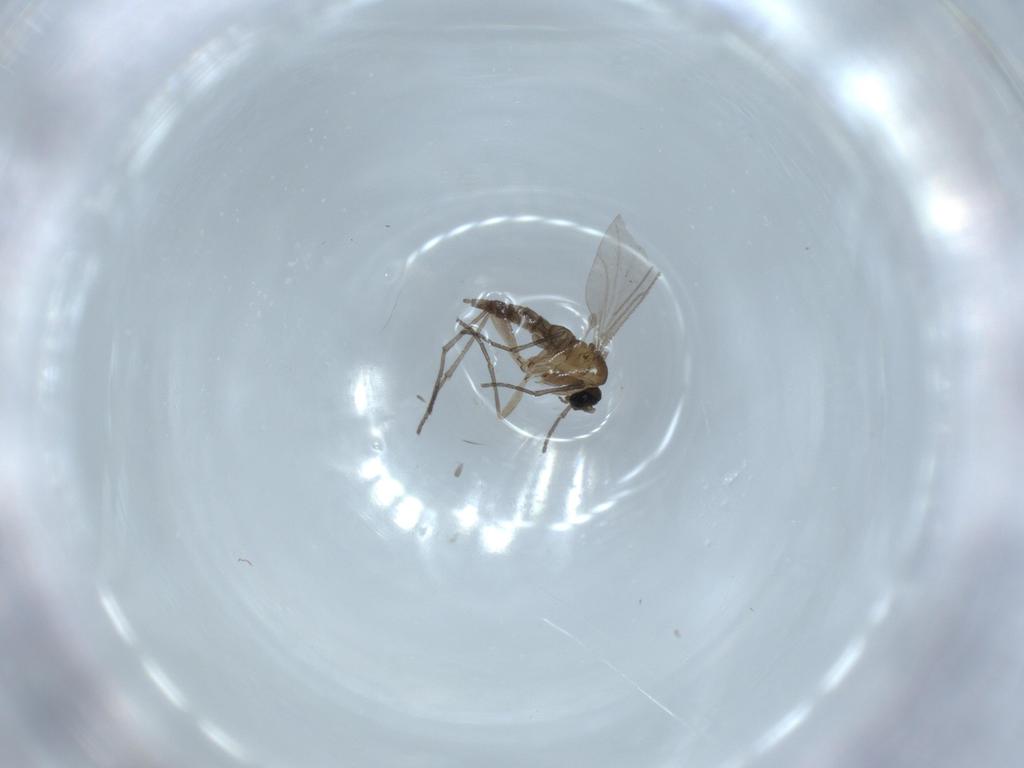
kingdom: Animalia
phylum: Arthropoda
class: Insecta
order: Diptera
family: Sciaridae
